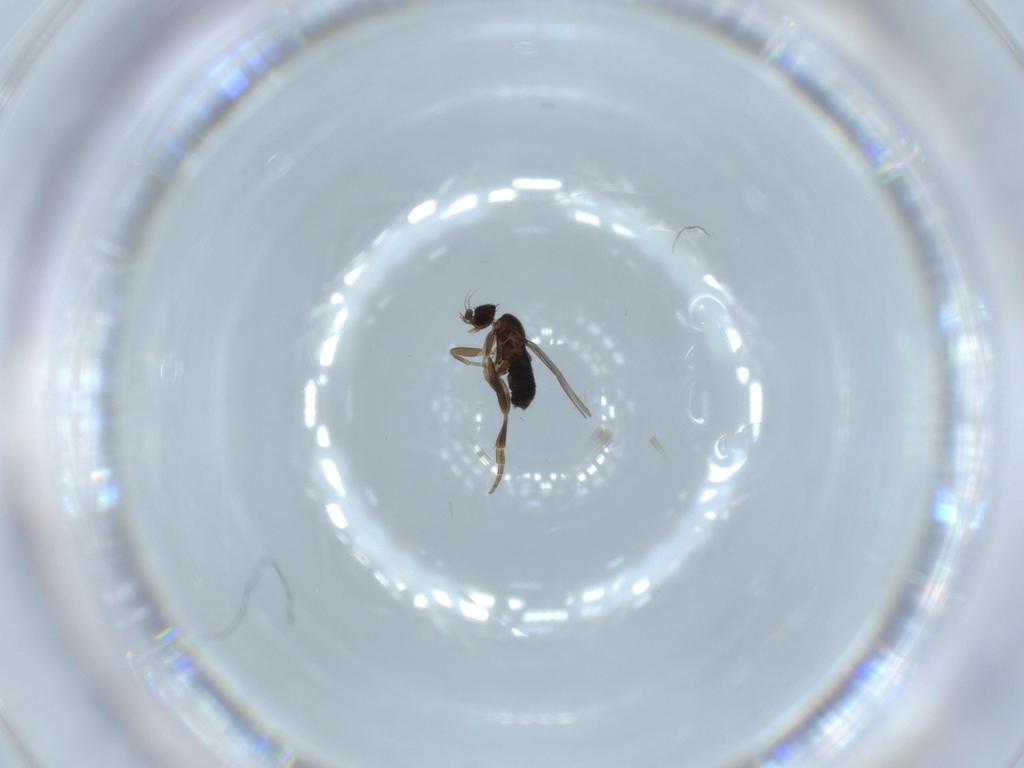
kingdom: Animalia
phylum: Arthropoda
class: Insecta
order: Diptera
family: Phoridae
